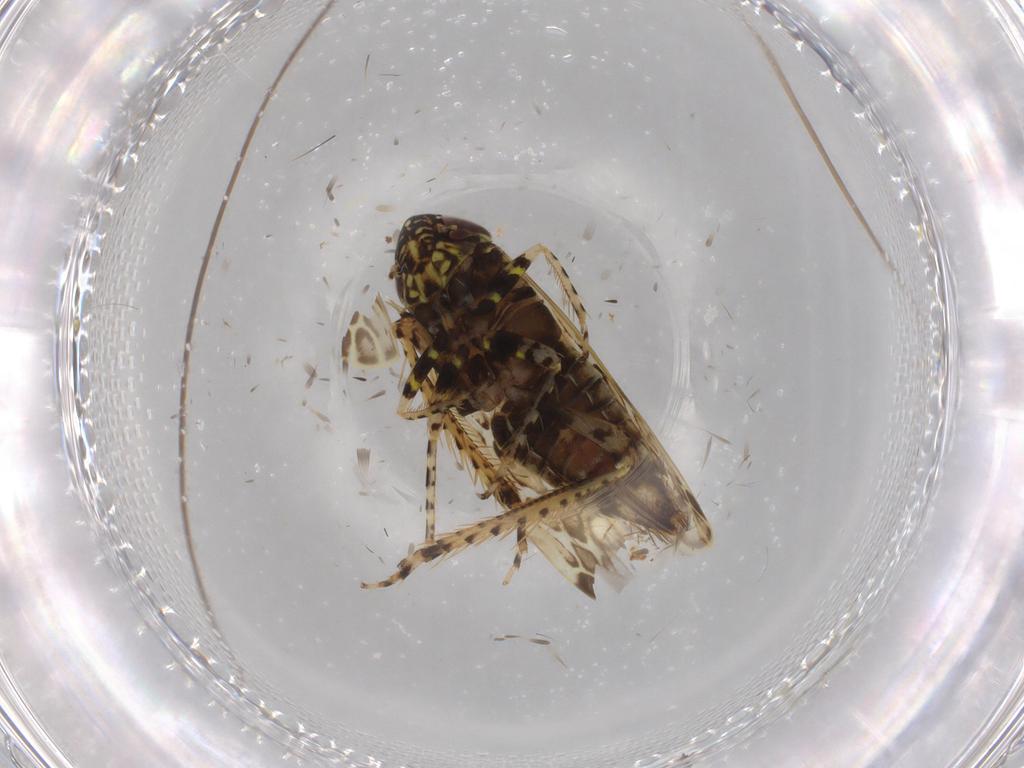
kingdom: Animalia
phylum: Arthropoda
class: Insecta
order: Hemiptera
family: Cicadellidae
